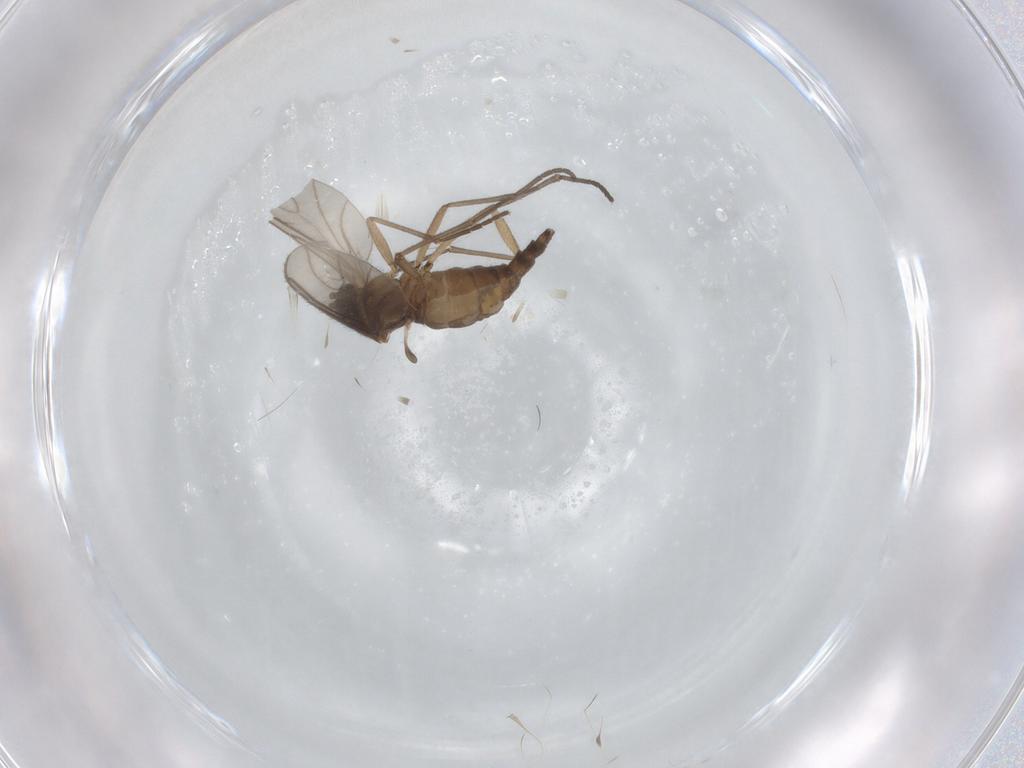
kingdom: Animalia
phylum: Arthropoda
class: Insecta
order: Diptera
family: Sciaridae
